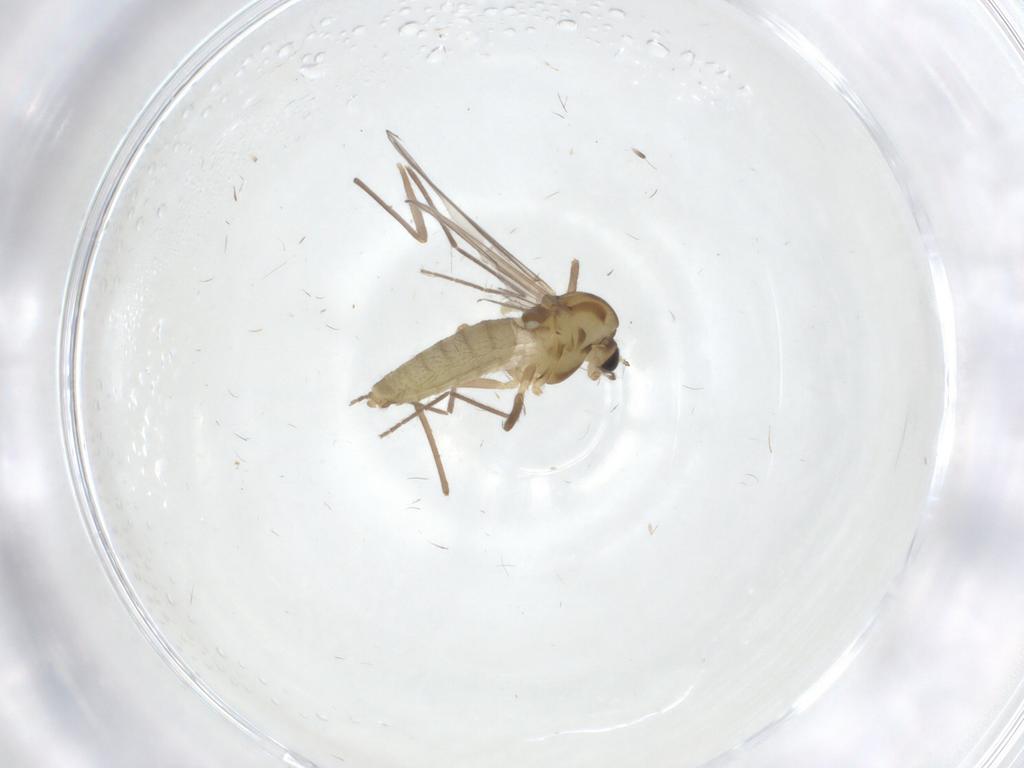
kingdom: Animalia
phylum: Arthropoda
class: Insecta
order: Diptera
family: Chironomidae
